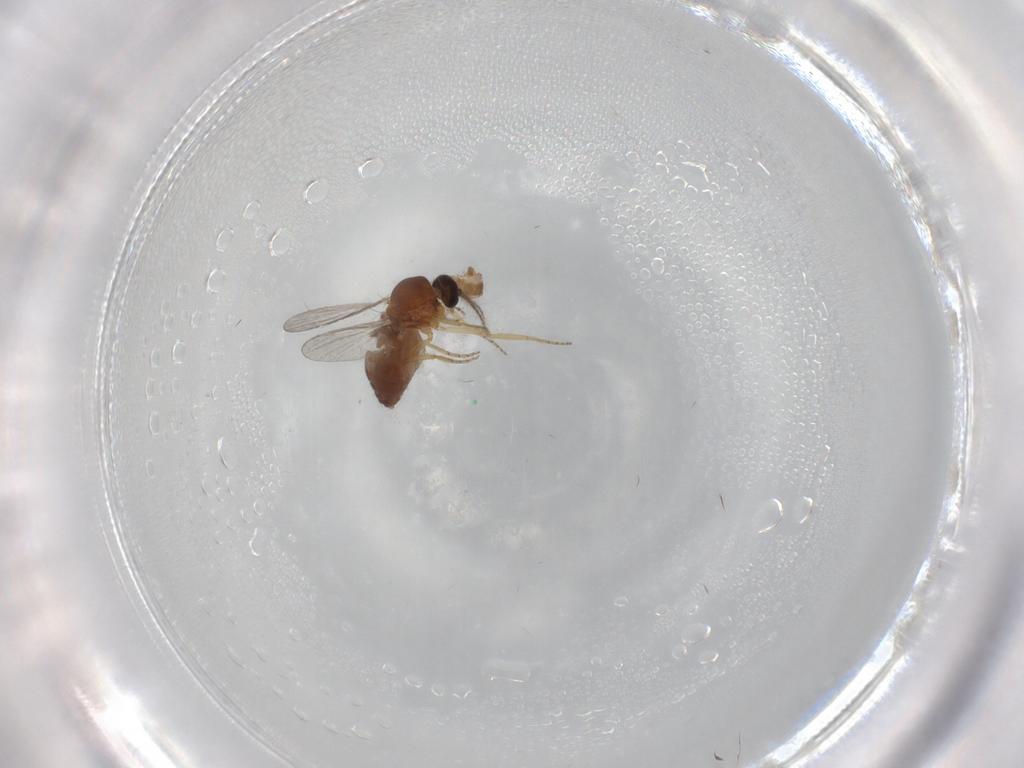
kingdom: Animalia
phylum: Arthropoda
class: Insecta
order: Diptera
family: Ceratopogonidae
